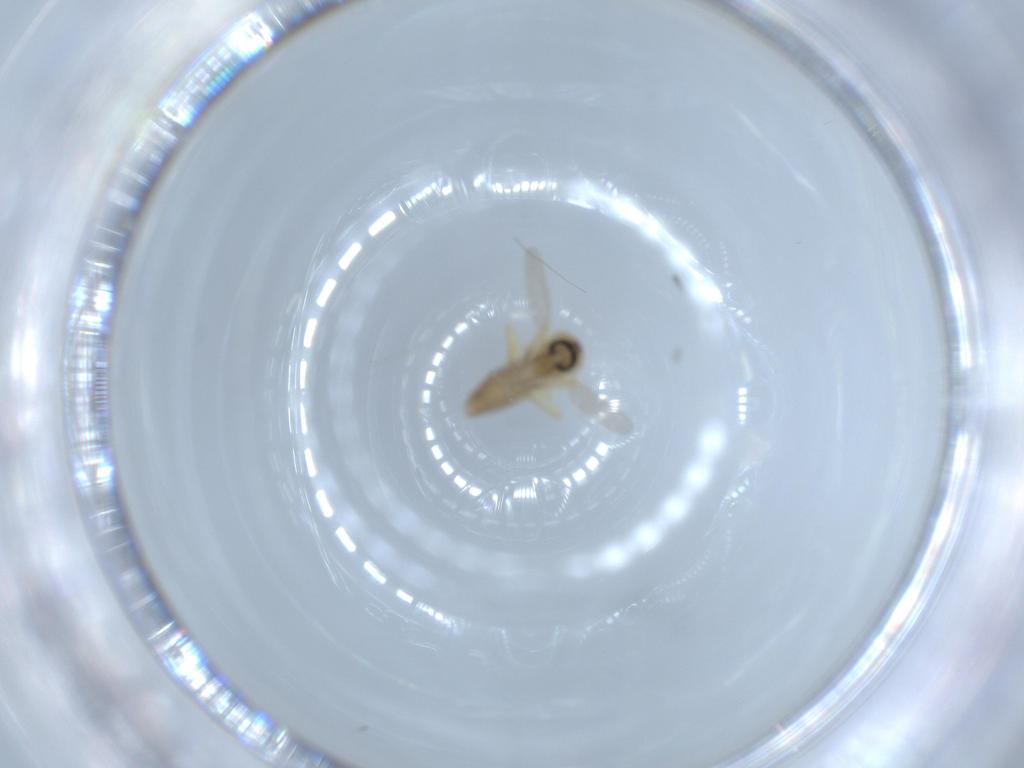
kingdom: Animalia
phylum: Arthropoda
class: Insecta
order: Diptera
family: Ceratopogonidae
